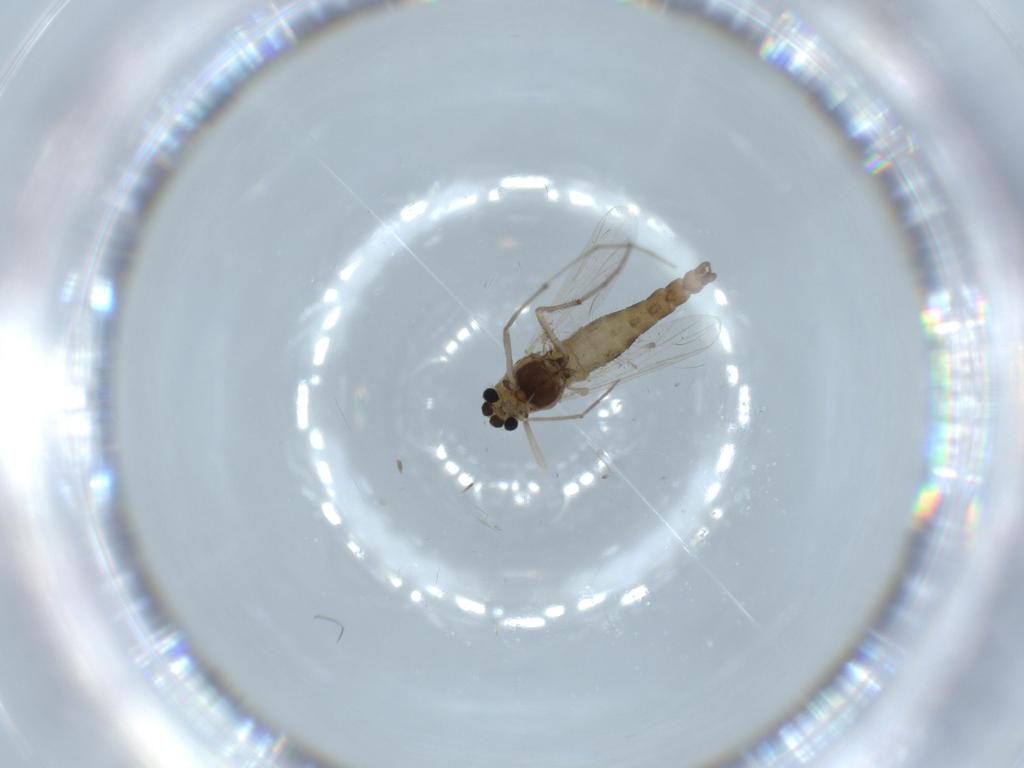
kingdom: Animalia
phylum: Arthropoda
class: Insecta
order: Diptera
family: Chironomidae
